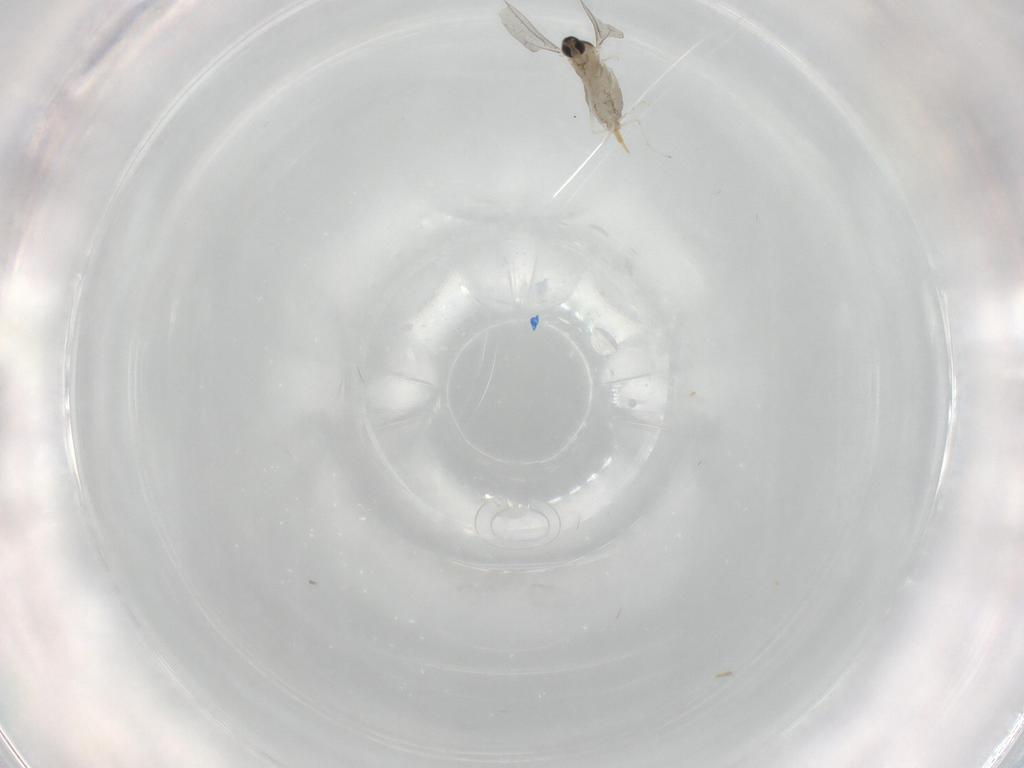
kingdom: Animalia
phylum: Arthropoda
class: Insecta
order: Diptera
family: Cecidomyiidae
